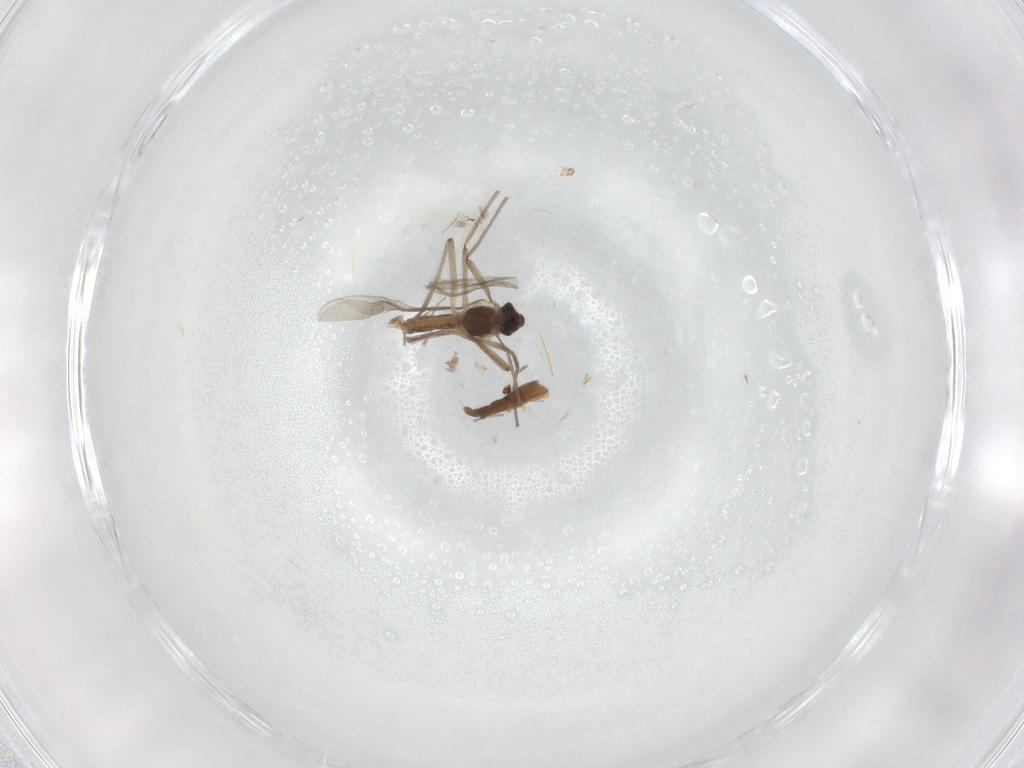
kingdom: Animalia
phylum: Arthropoda
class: Insecta
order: Diptera
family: Chironomidae
